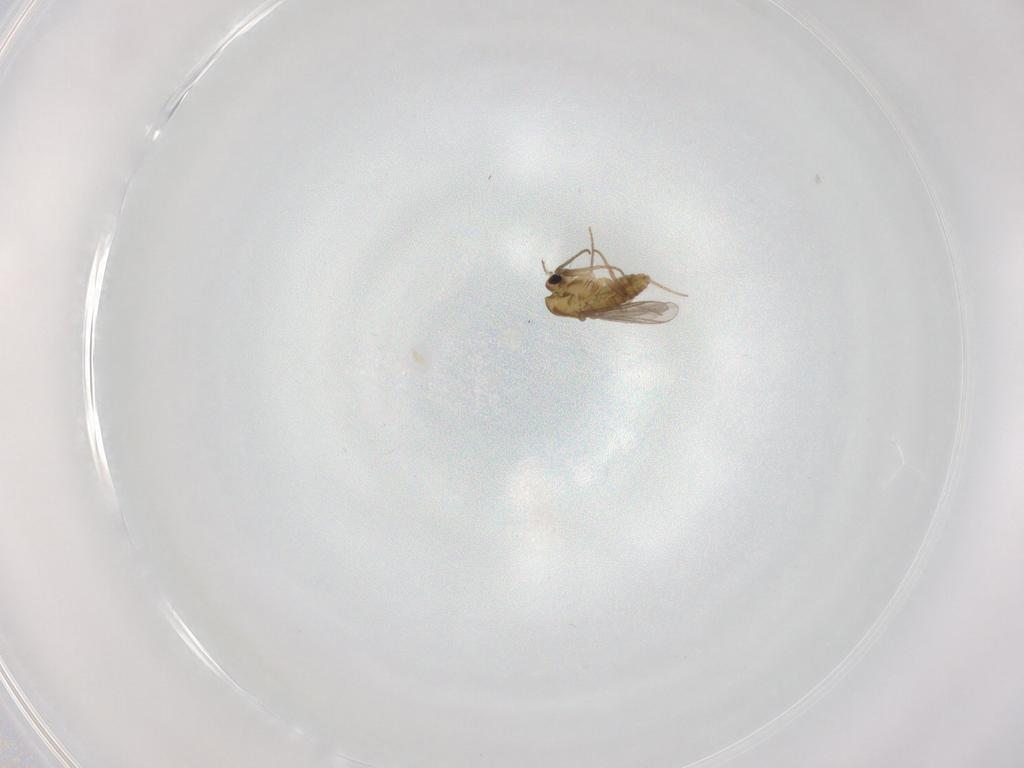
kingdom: Animalia
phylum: Arthropoda
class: Insecta
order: Diptera
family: Chironomidae
